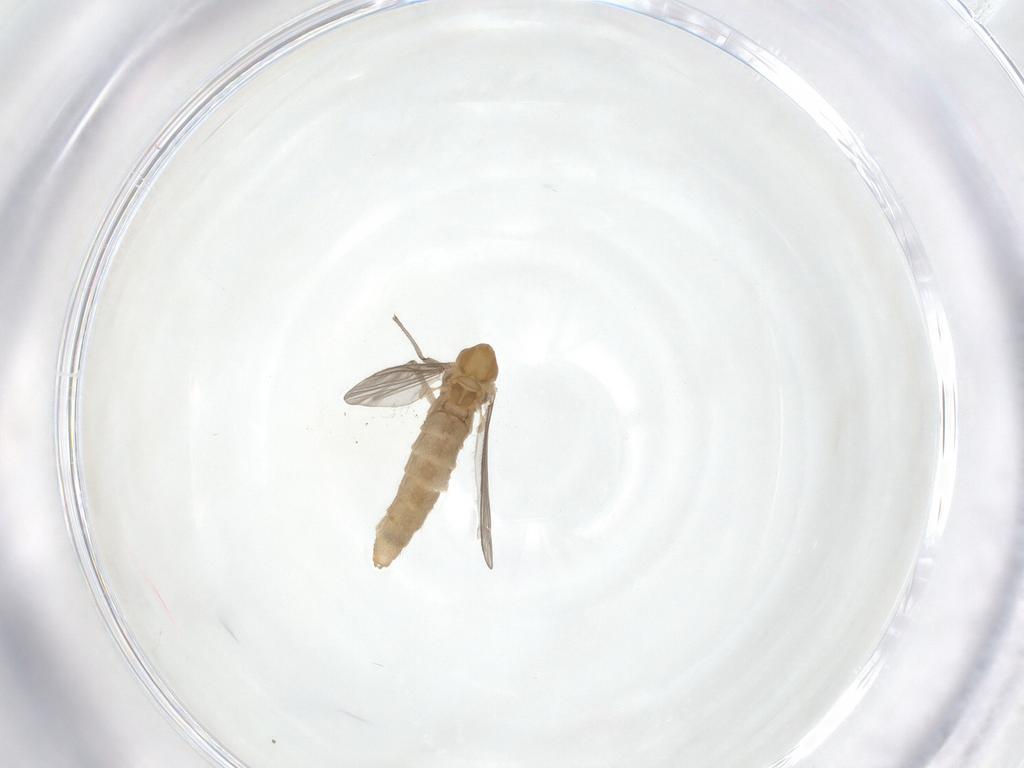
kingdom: Animalia
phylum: Arthropoda
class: Insecta
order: Diptera
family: Chironomidae
